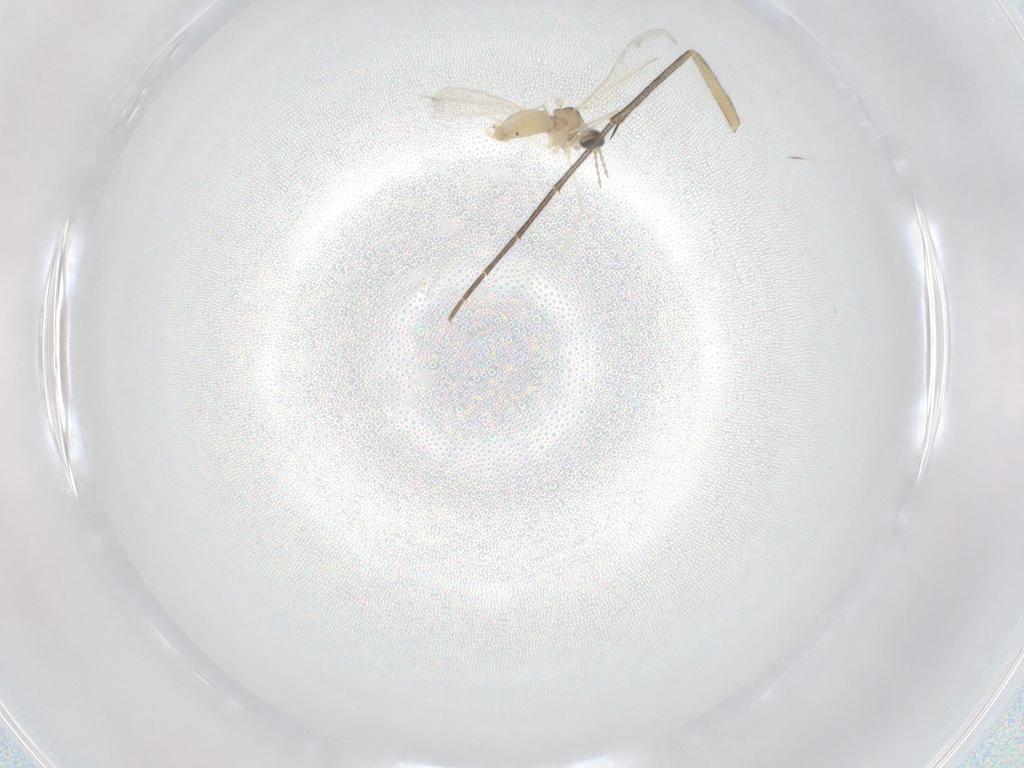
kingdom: Animalia
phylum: Arthropoda
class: Insecta
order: Diptera
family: Mycetophilidae
